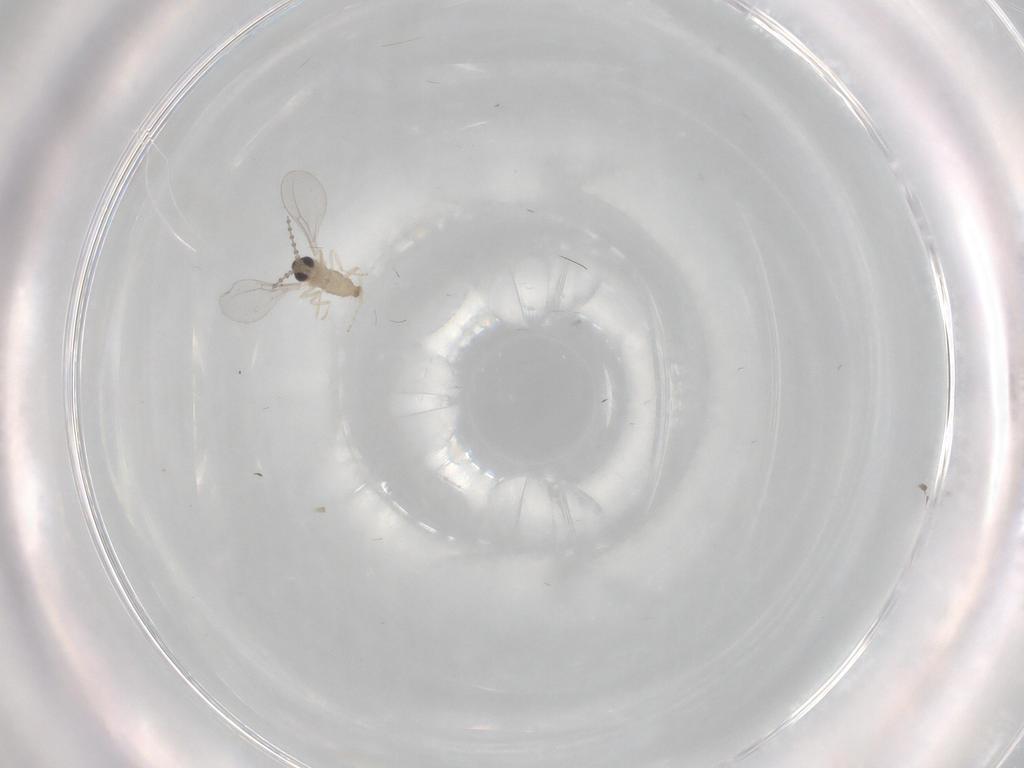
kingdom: Animalia
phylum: Arthropoda
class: Insecta
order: Diptera
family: Cecidomyiidae
